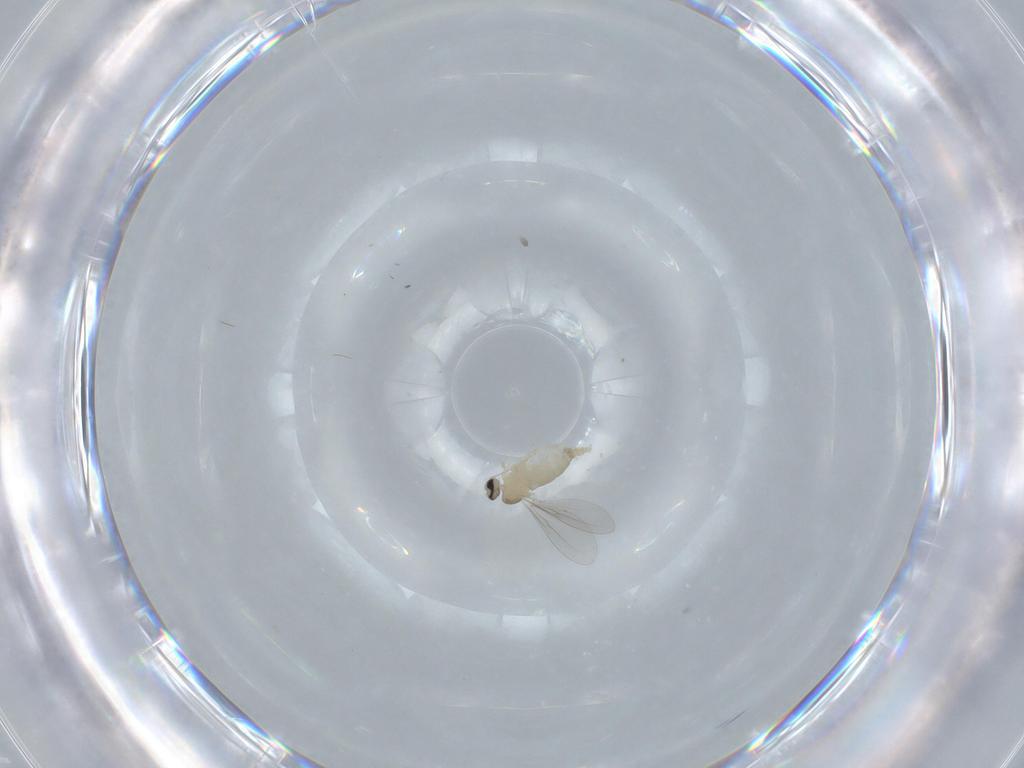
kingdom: Animalia
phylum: Arthropoda
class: Insecta
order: Diptera
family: Cecidomyiidae
